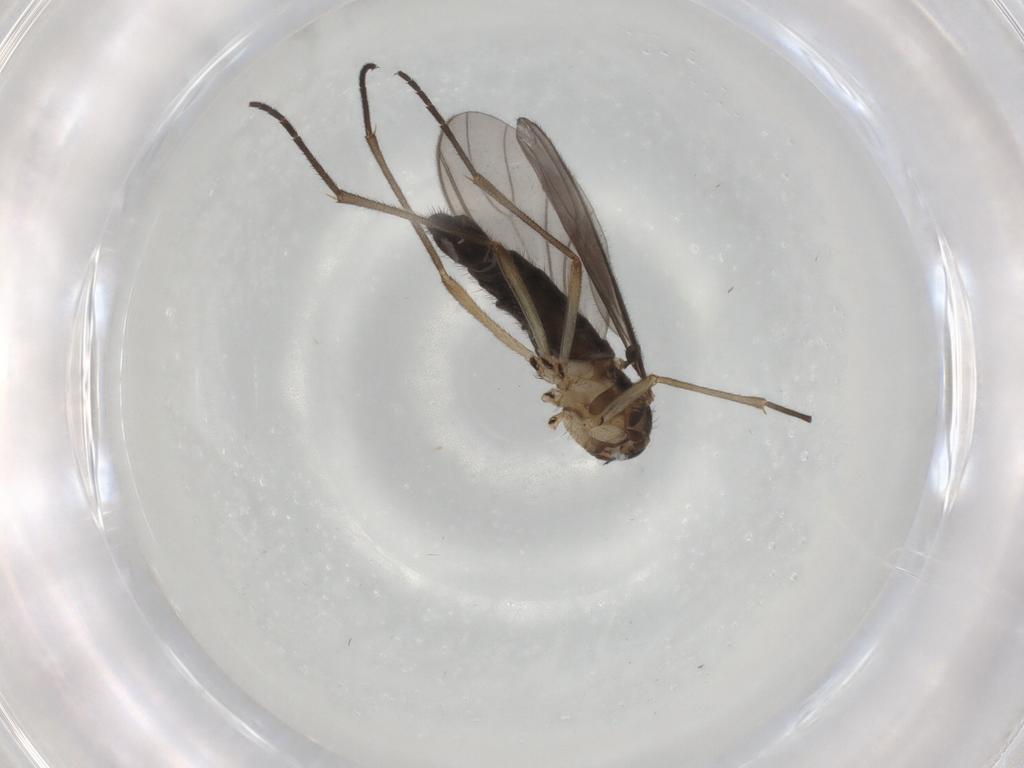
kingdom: Animalia
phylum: Arthropoda
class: Insecta
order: Diptera
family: Sciaridae
